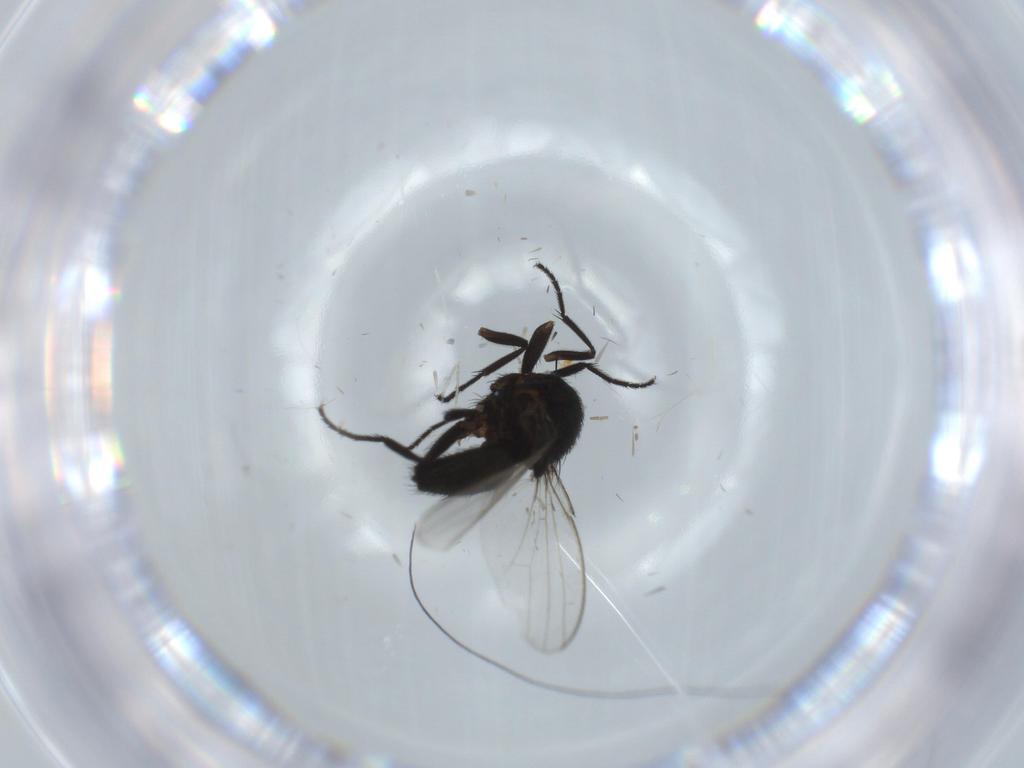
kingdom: Animalia
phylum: Arthropoda
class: Insecta
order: Diptera
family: Milichiidae
